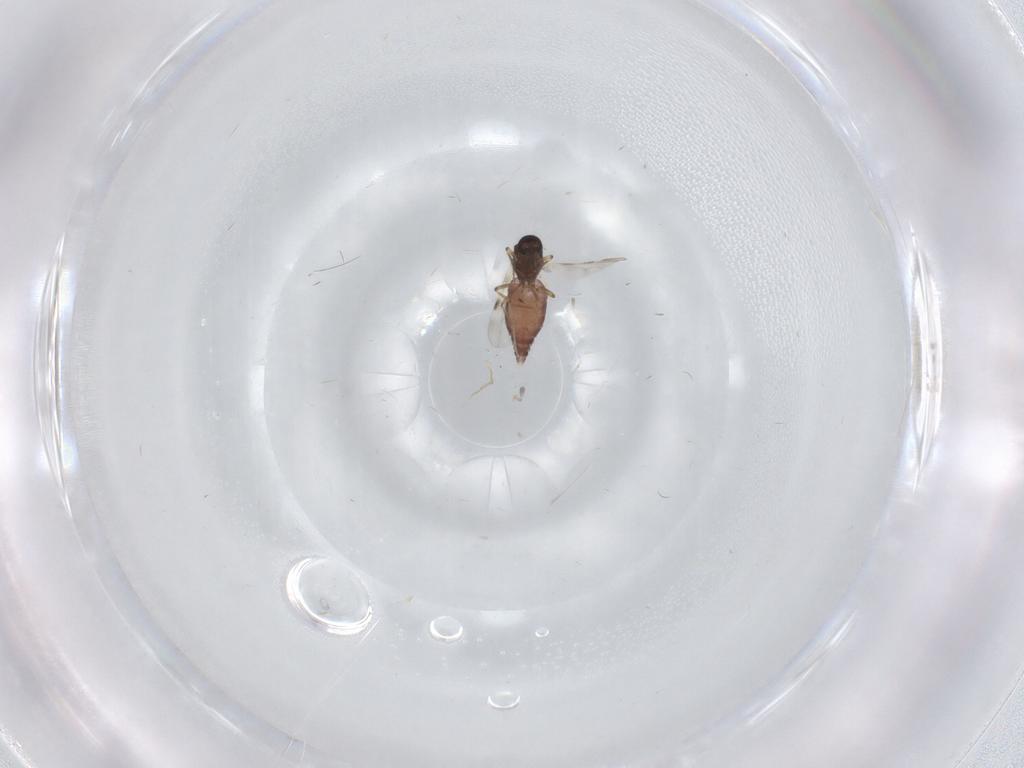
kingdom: Animalia
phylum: Arthropoda
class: Insecta
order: Diptera
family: Cecidomyiidae
